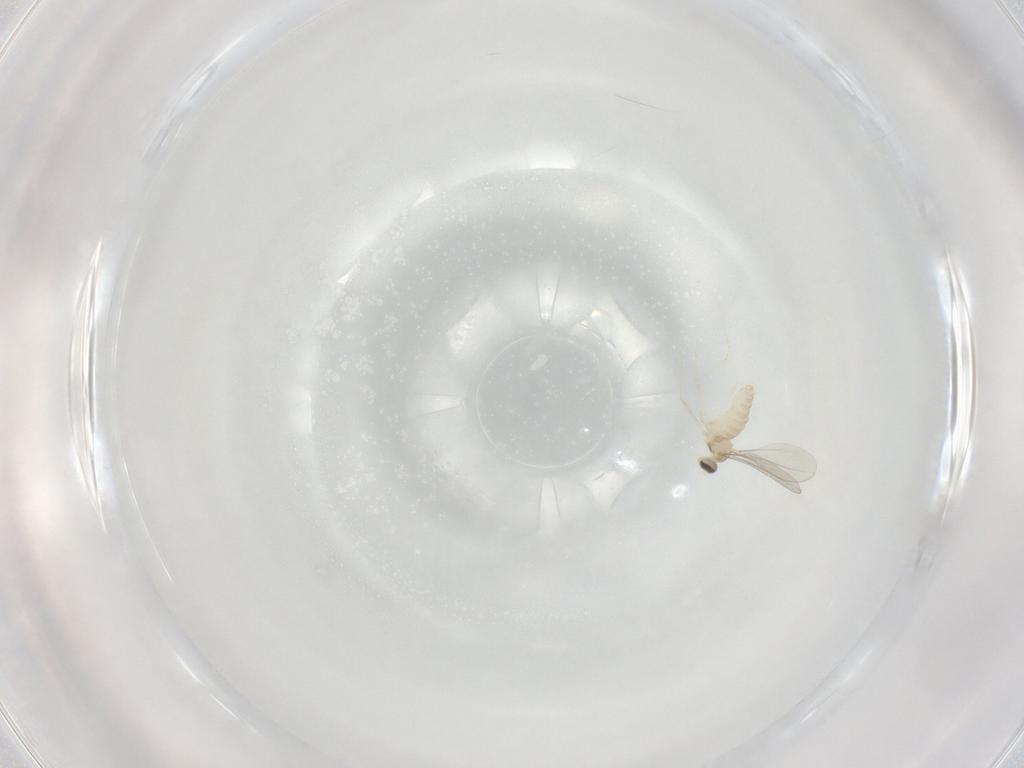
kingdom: Animalia
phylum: Arthropoda
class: Insecta
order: Diptera
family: Cecidomyiidae
